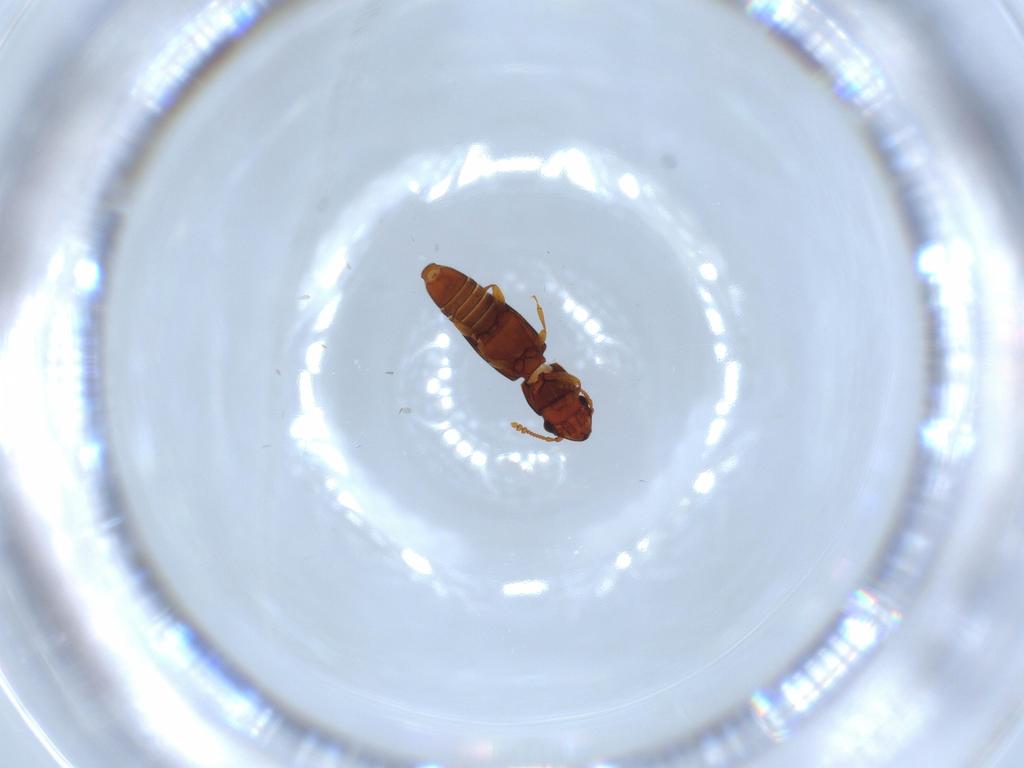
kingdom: Animalia
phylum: Arthropoda
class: Insecta
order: Coleoptera
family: Smicripidae
